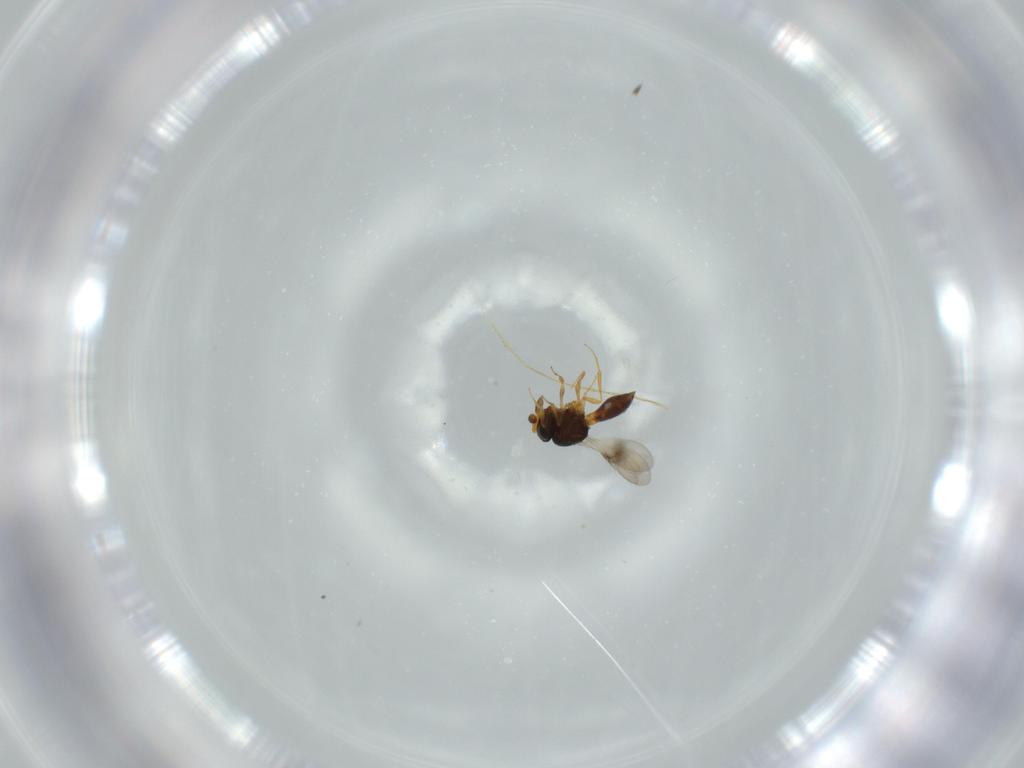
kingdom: Animalia
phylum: Arthropoda
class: Insecta
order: Hymenoptera
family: Scelionidae
